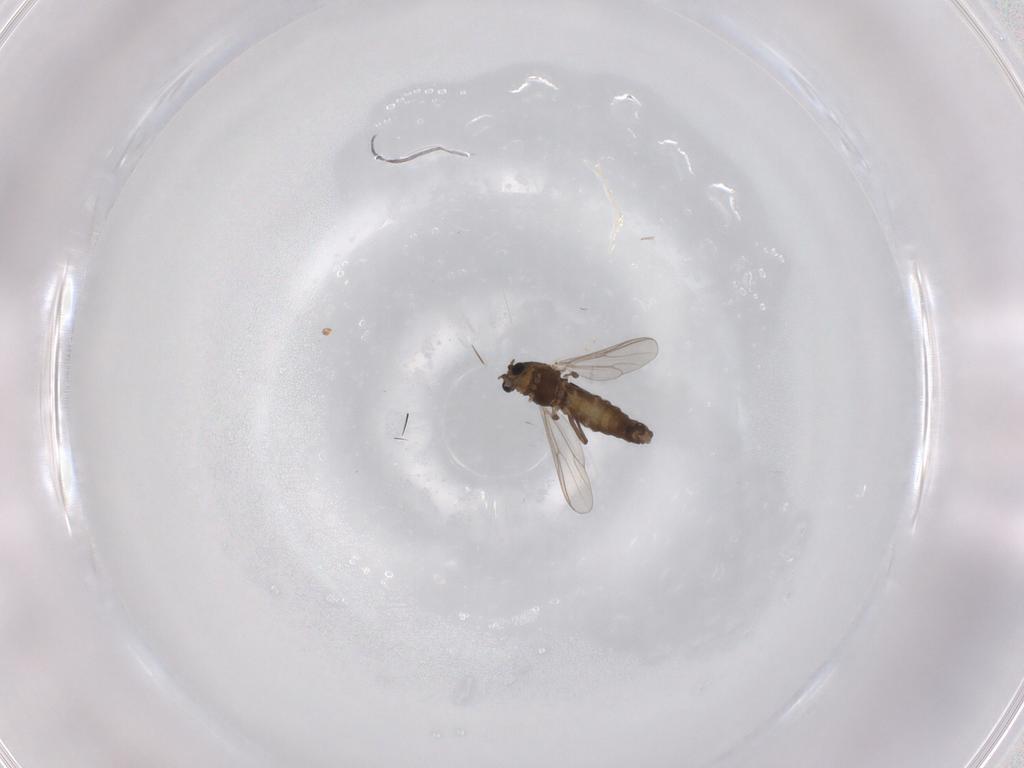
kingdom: Animalia
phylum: Arthropoda
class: Insecta
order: Diptera
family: Chironomidae
